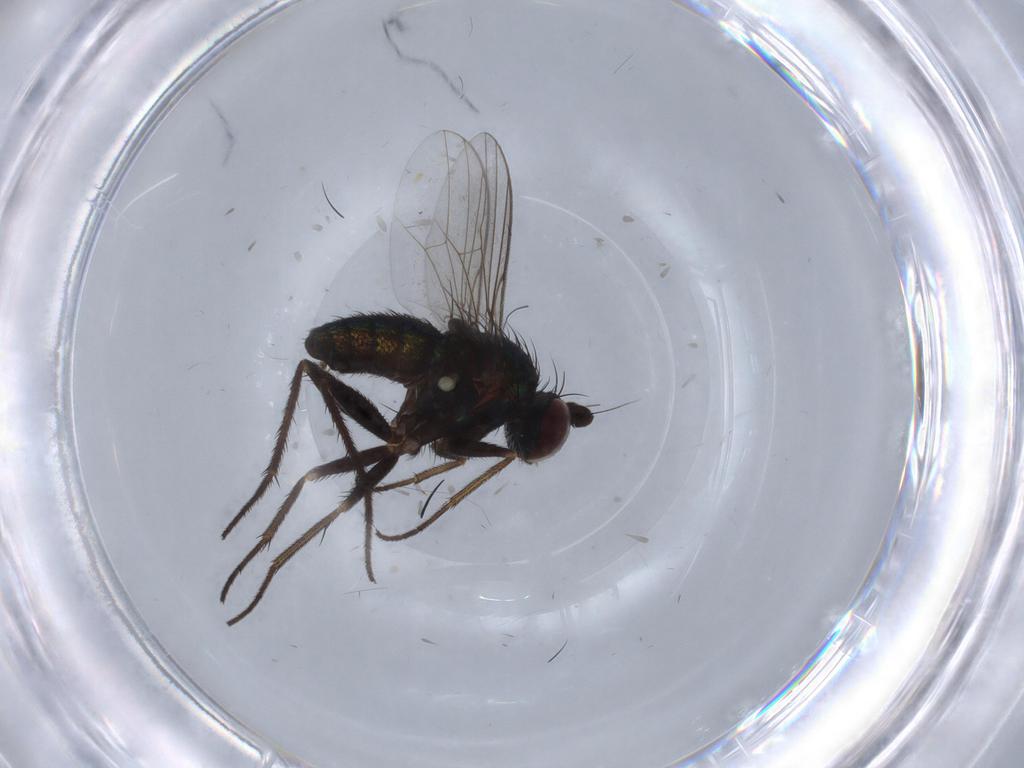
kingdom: Animalia
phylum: Arthropoda
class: Insecta
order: Diptera
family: Dolichopodidae
